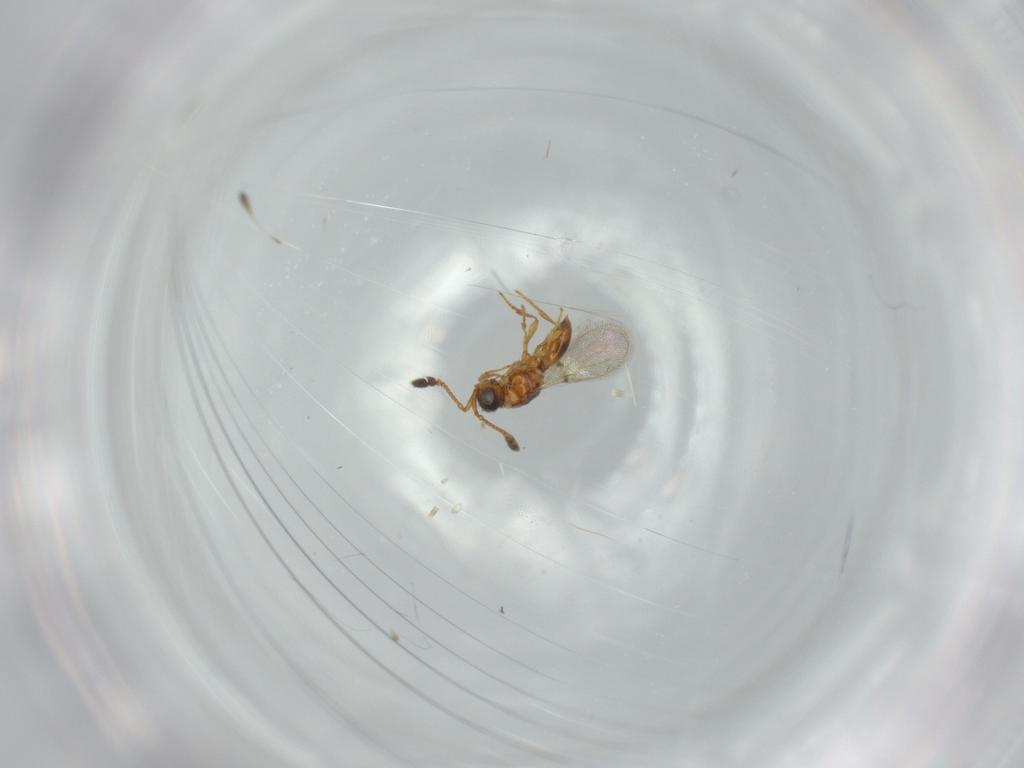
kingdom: Animalia
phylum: Arthropoda
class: Insecta
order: Hymenoptera
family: Diapriidae
